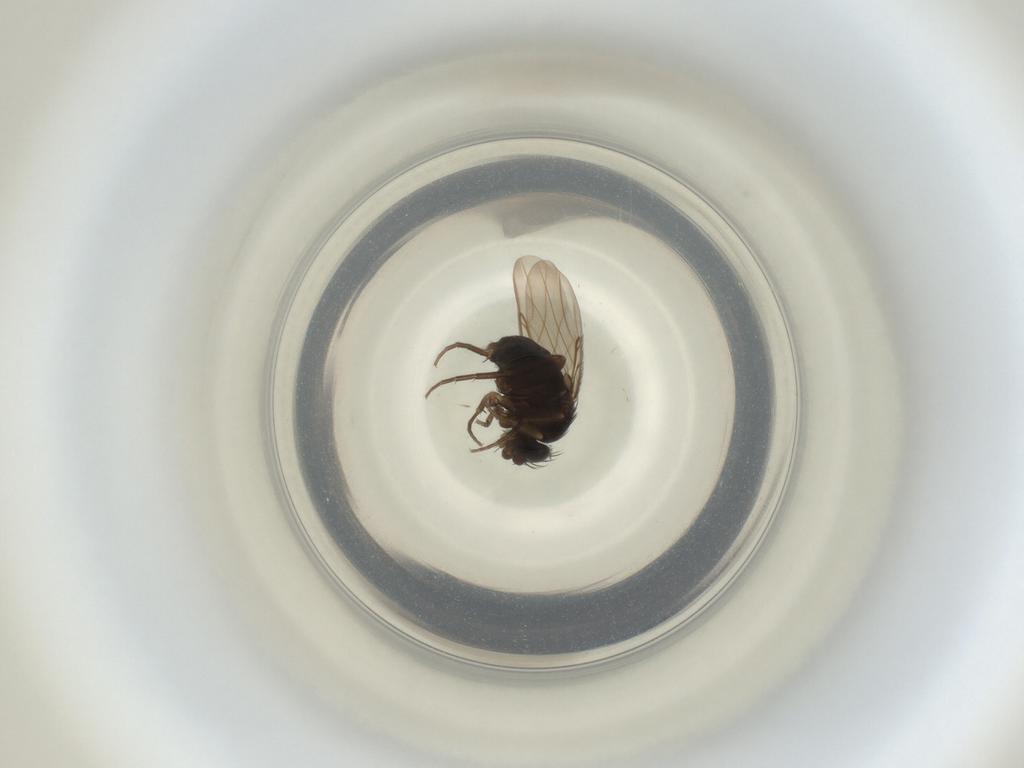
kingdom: Animalia
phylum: Arthropoda
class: Insecta
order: Diptera
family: Phoridae
